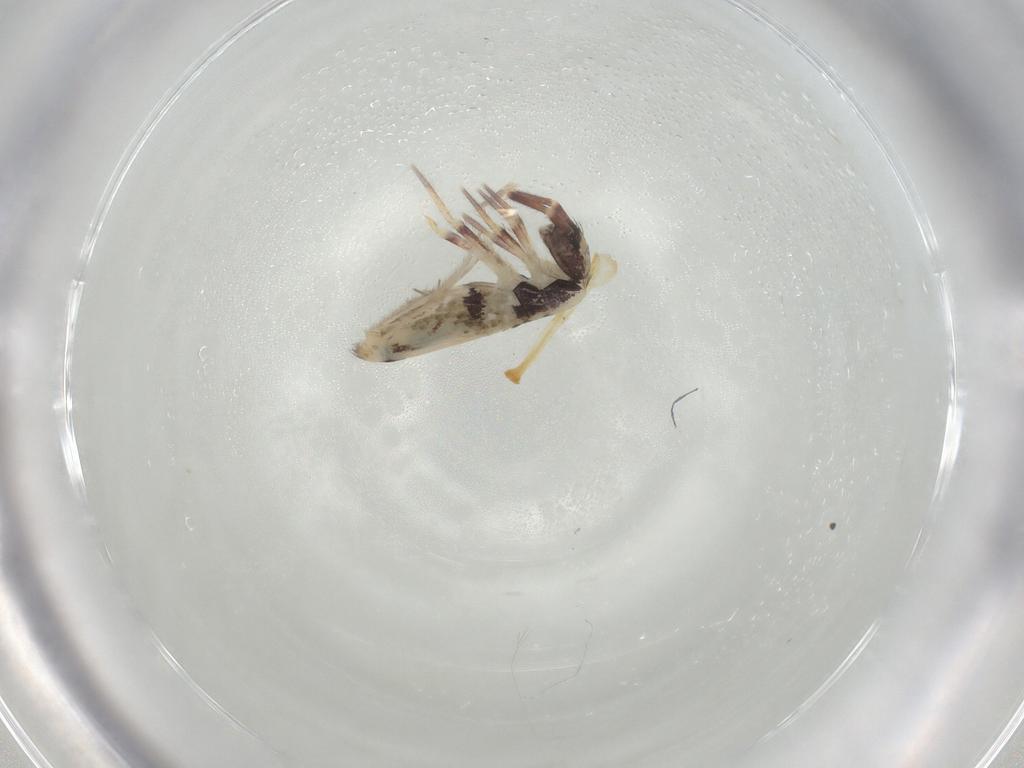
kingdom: Animalia
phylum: Arthropoda
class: Collembola
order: Entomobryomorpha
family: Entomobryidae
